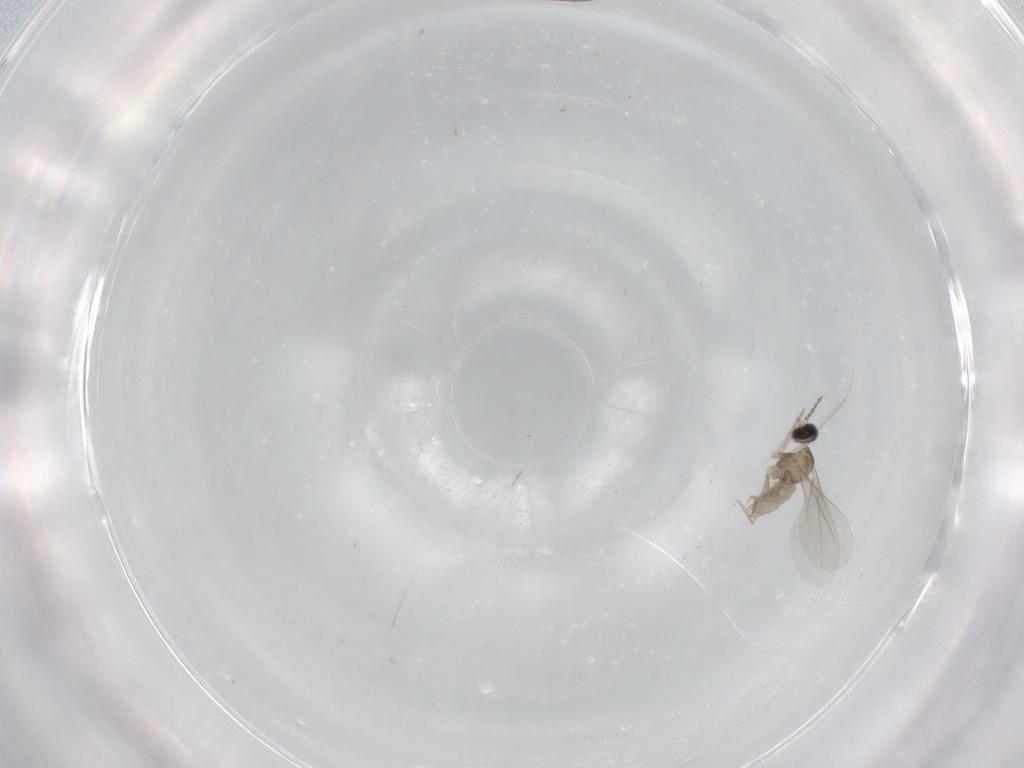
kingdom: Animalia
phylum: Arthropoda
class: Insecta
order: Diptera
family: Cecidomyiidae
